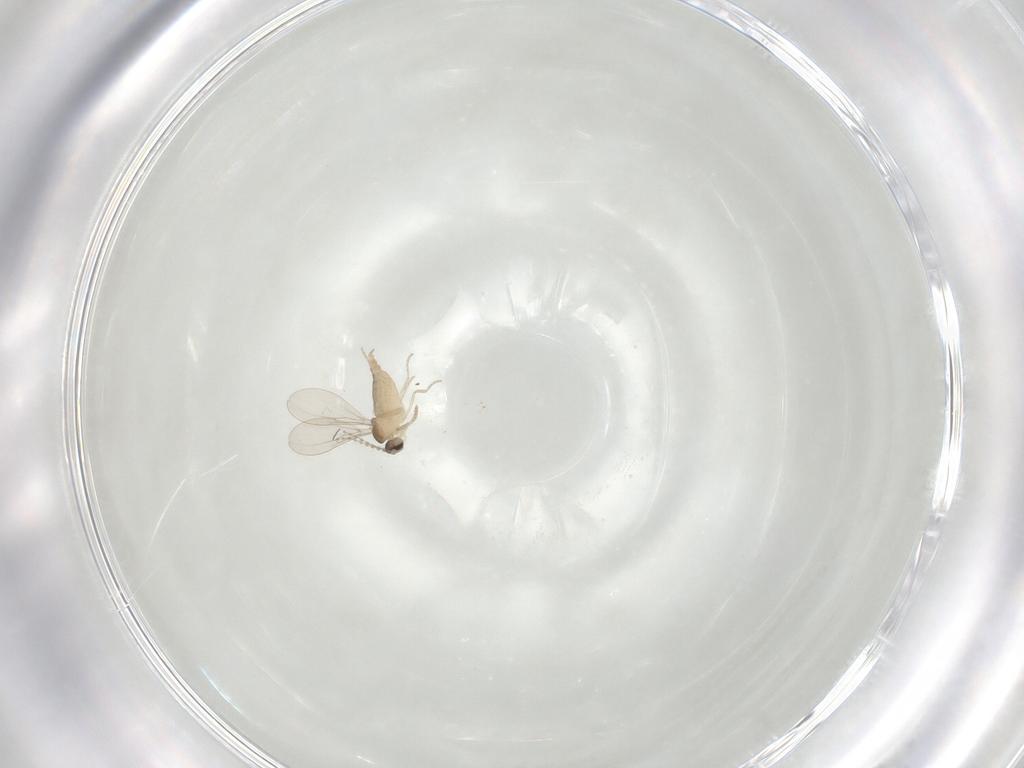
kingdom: Animalia
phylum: Arthropoda
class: Insecta
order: Diptera
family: Cecidomyiidae
